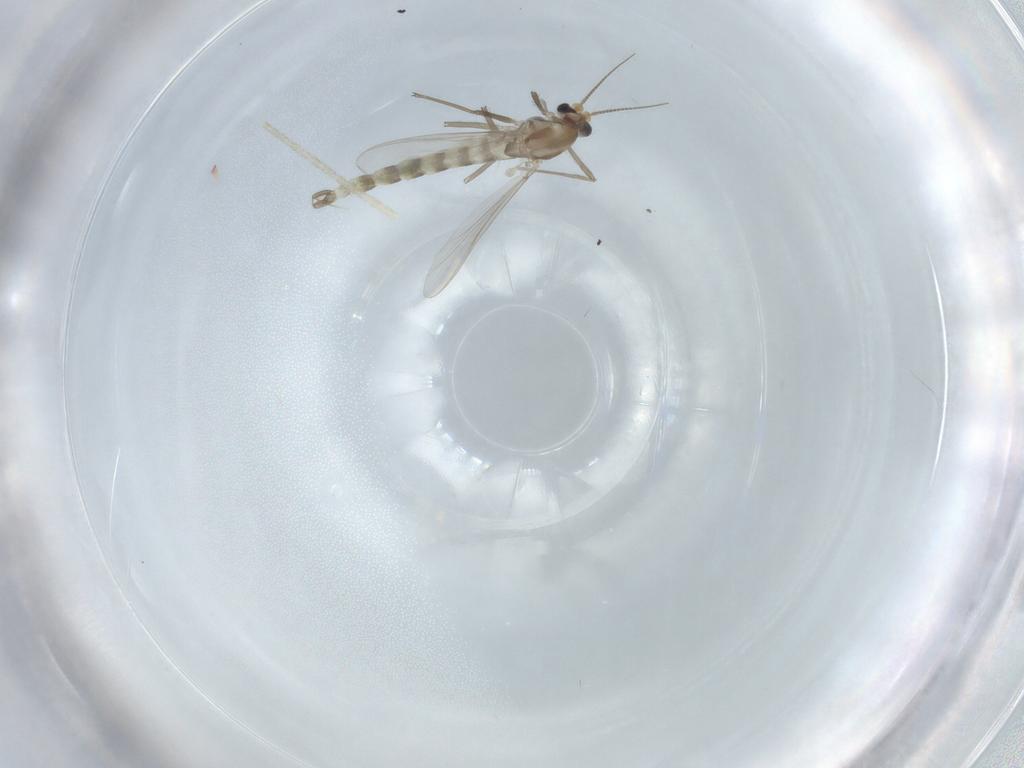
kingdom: Animalia
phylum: Arthropoda
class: Insecta
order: Diptera
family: Chironomidae
